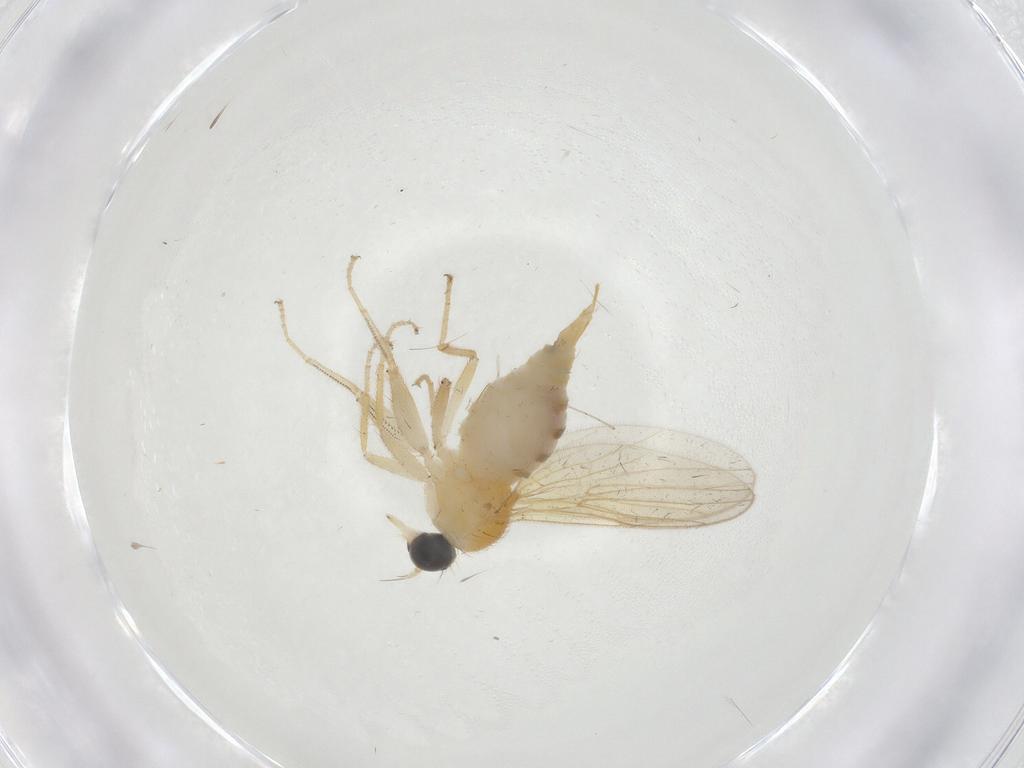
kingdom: Animalia
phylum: Arthropoda
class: Insecta
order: Diptera
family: Cecidomyiidae
